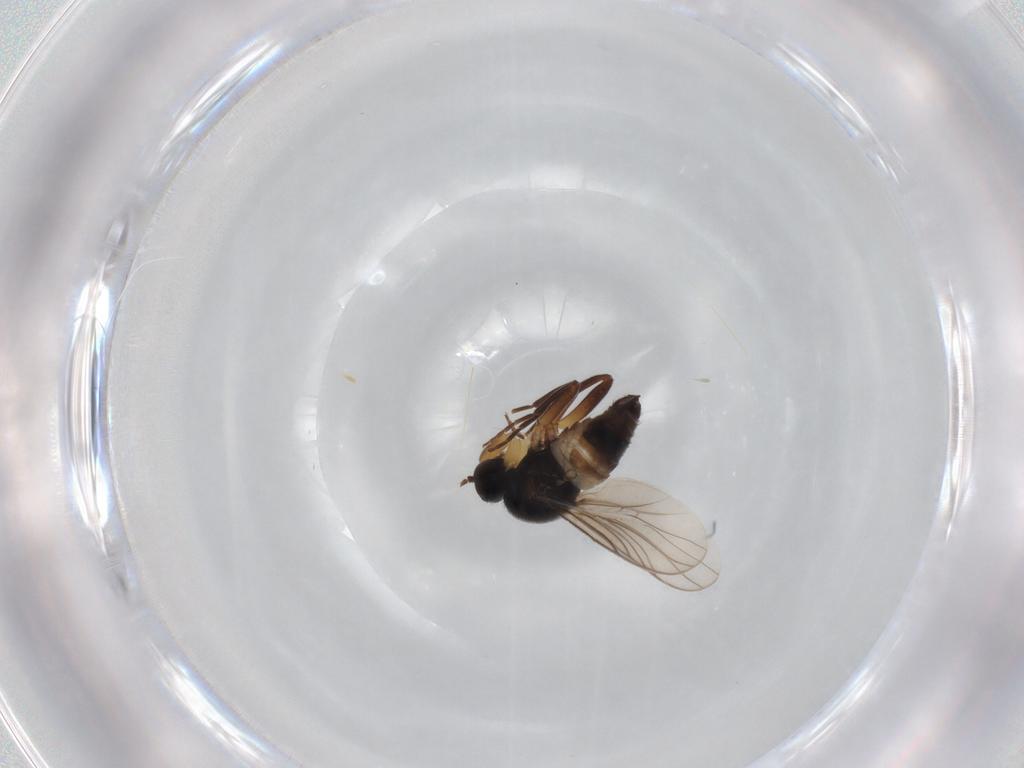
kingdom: Animalia
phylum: Arthropoda
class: Insecta
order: Diptera
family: Hybotidae
